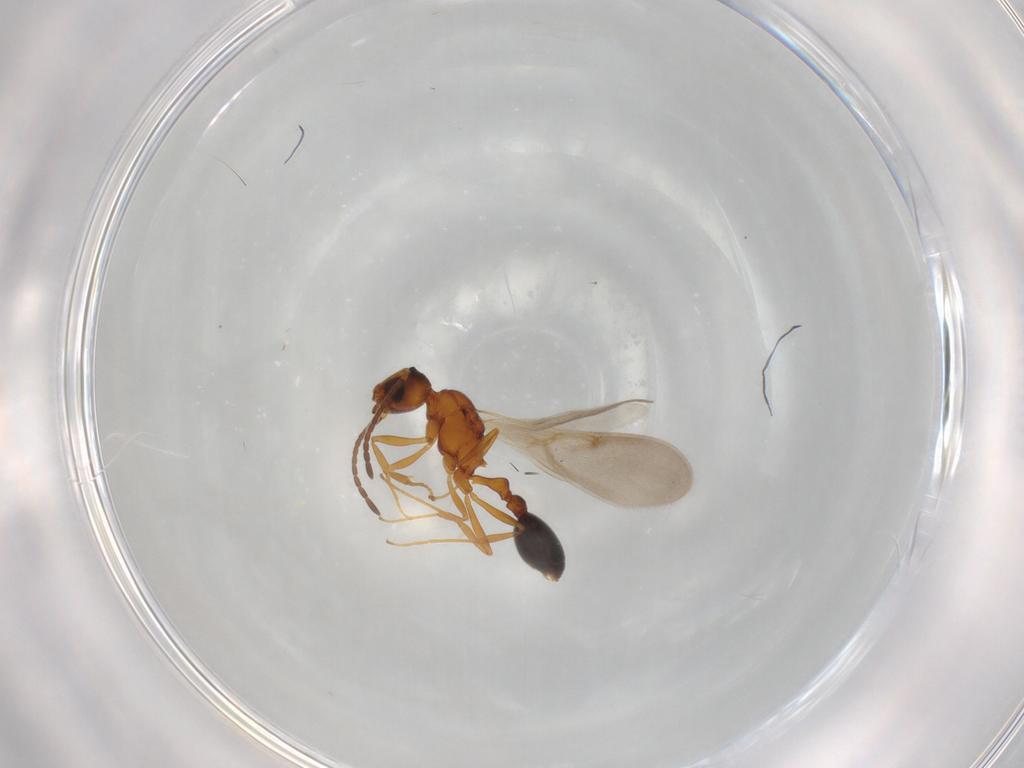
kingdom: Animalia
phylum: Arthropoda
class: Insecta
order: Hymenoptera
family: Formicidae
